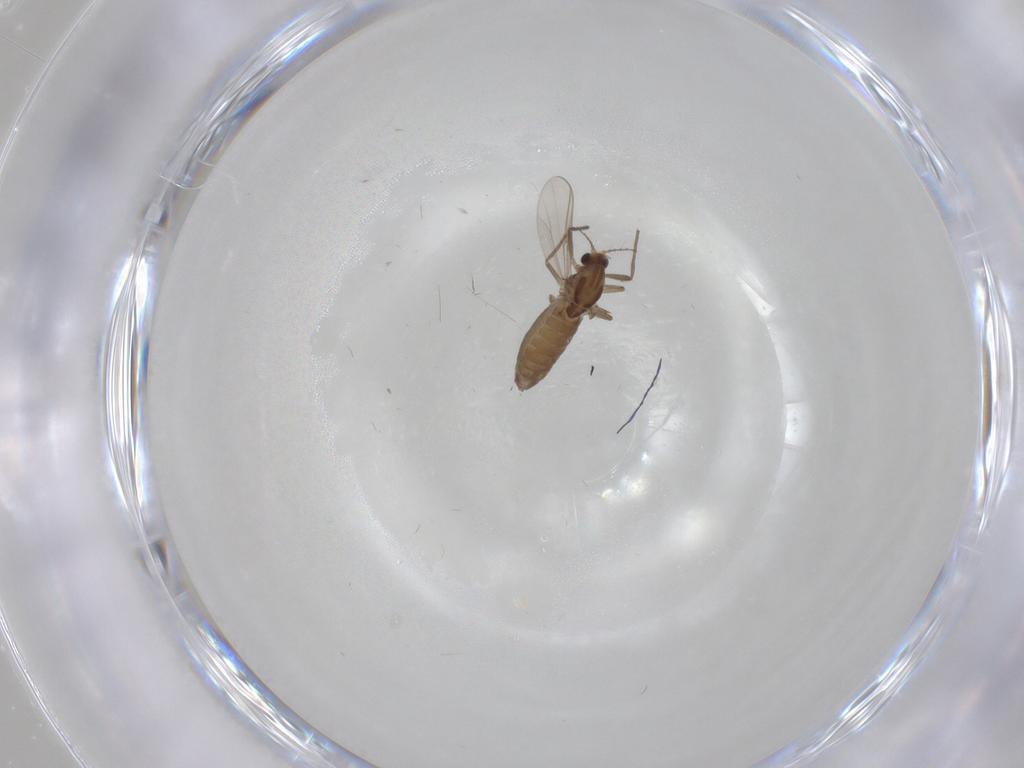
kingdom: Animalia
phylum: Arthropoda
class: Insecta
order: Diptera
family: Chironomidae
